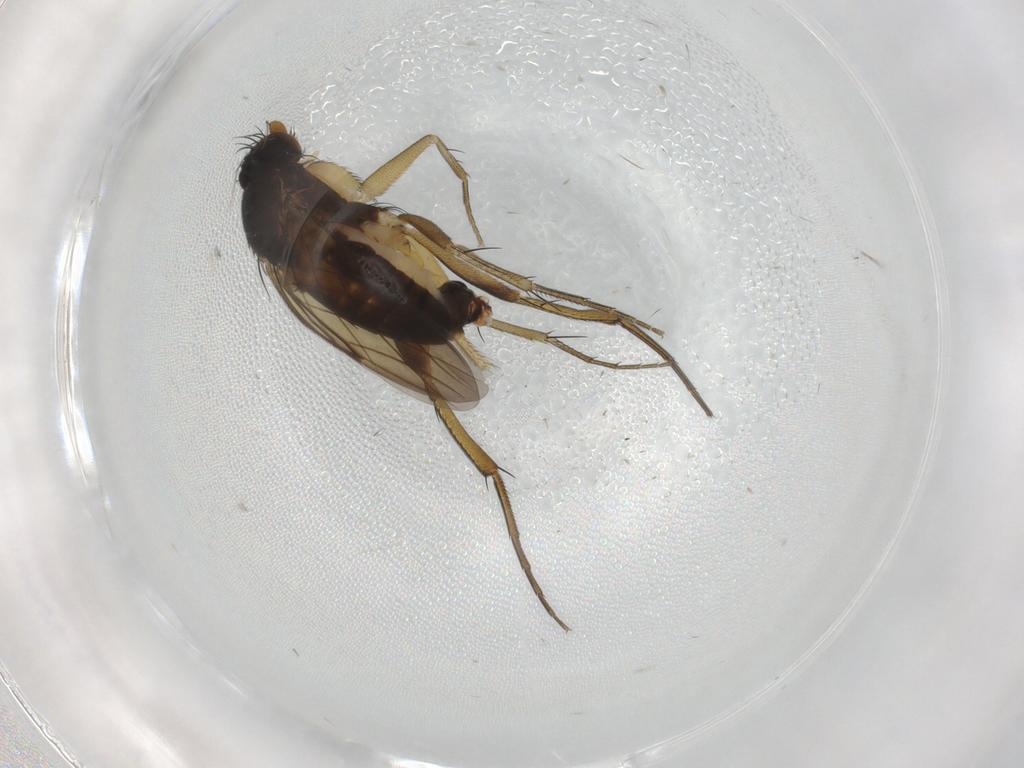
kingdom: Animalia
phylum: Arthropoda
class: Insecta
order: Diptera
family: Phoridae
